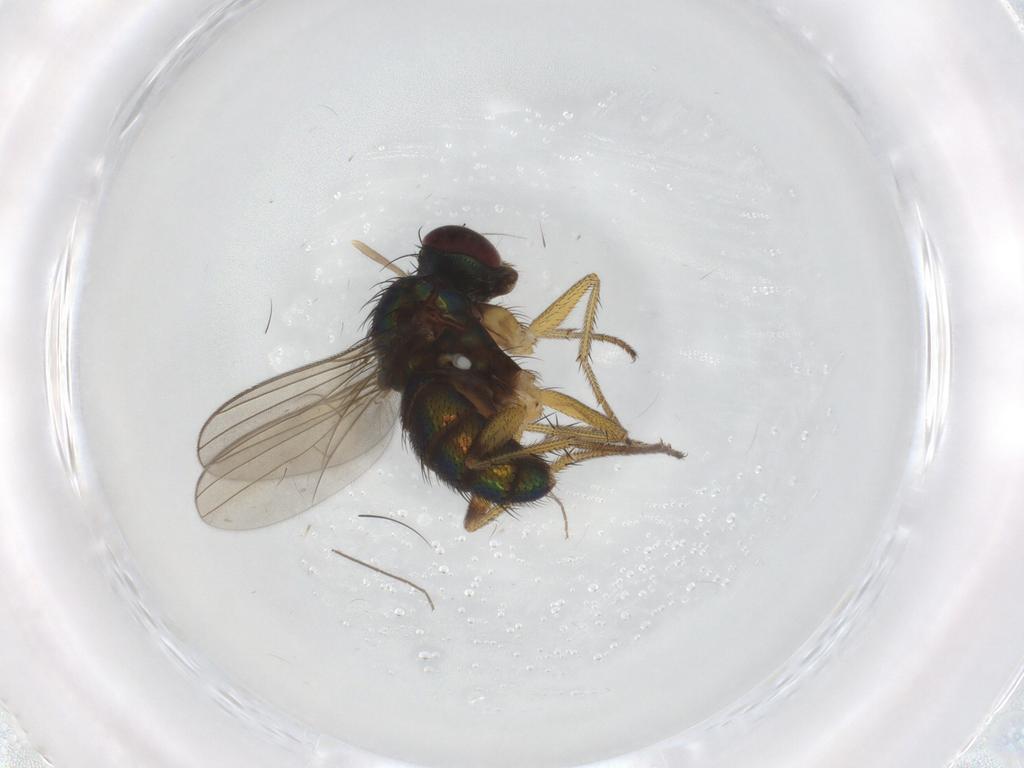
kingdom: Animalia
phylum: Arthropoda
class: Insecta
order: Diptera
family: Dolichopodidae
